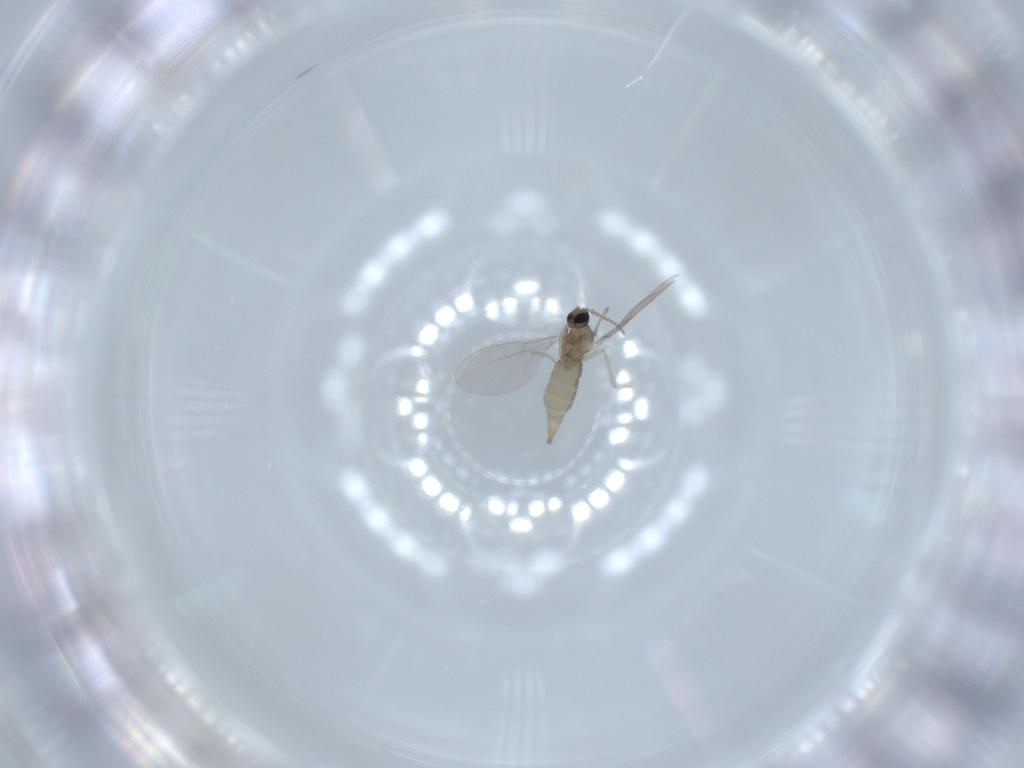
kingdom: Animalia
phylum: Arthropoda
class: Insecta
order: Diptera
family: Cecidomyiidae
